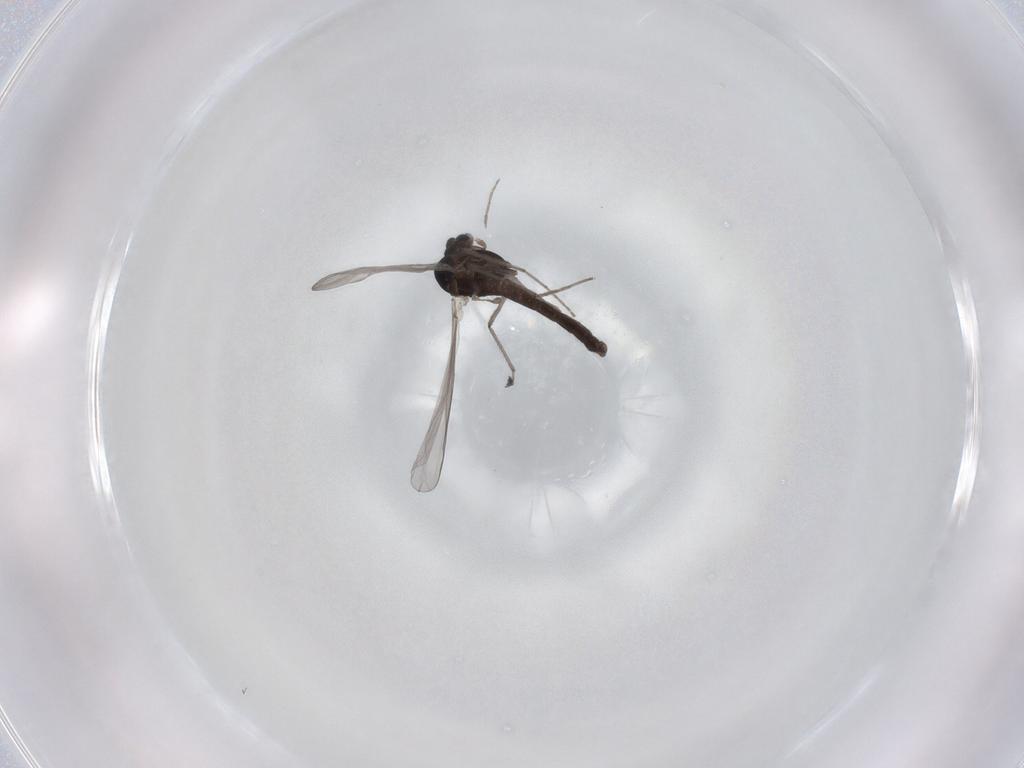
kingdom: Animalia
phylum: Arthropoda
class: Insecta
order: Diptera
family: Chironomidae
